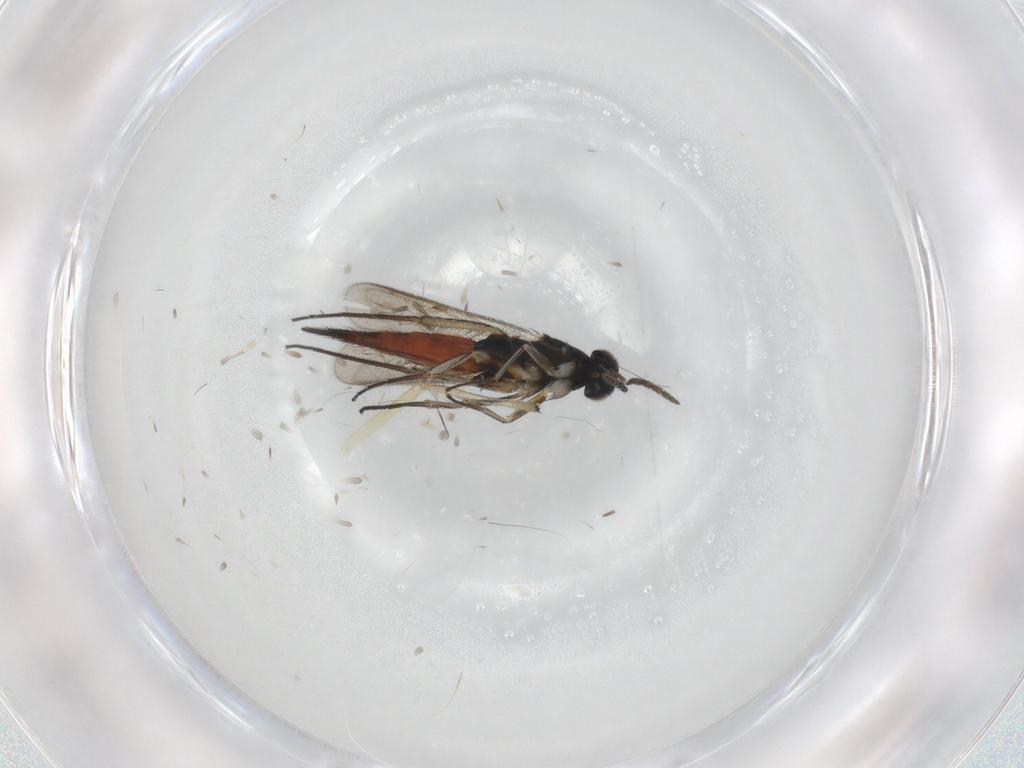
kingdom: Animalia
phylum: Arthropoda
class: Insecta
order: Hymenoptera
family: Eulophidae
